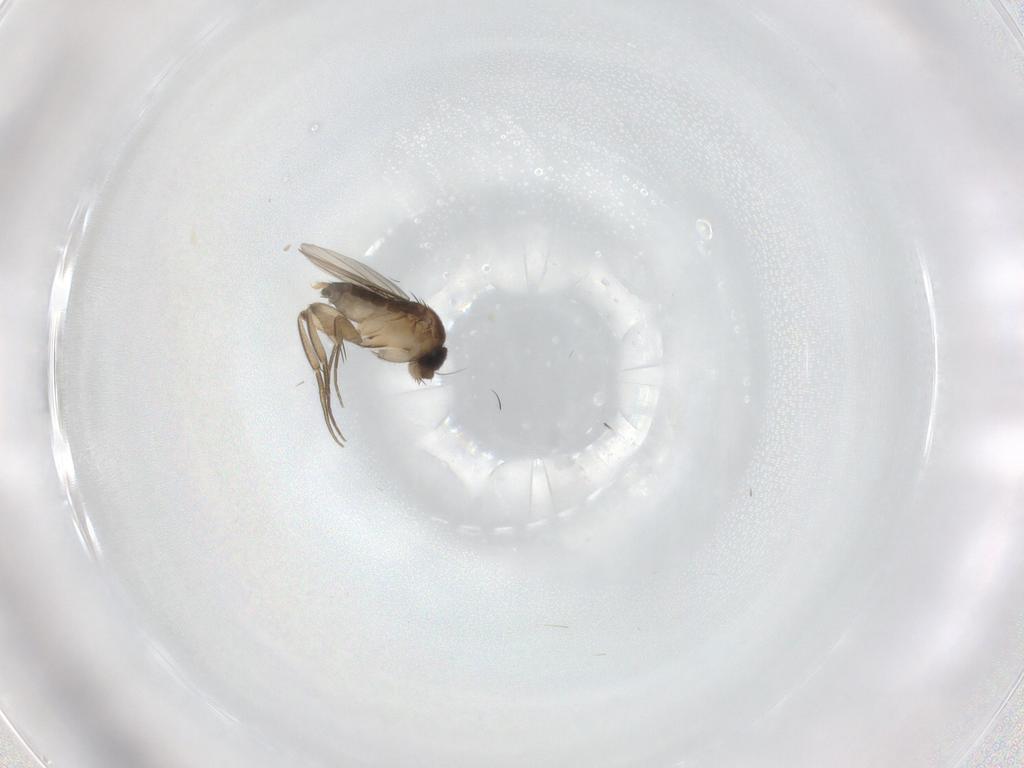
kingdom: Animalia
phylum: Arthropoda
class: Insecta
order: Diptera
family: Phoridae
